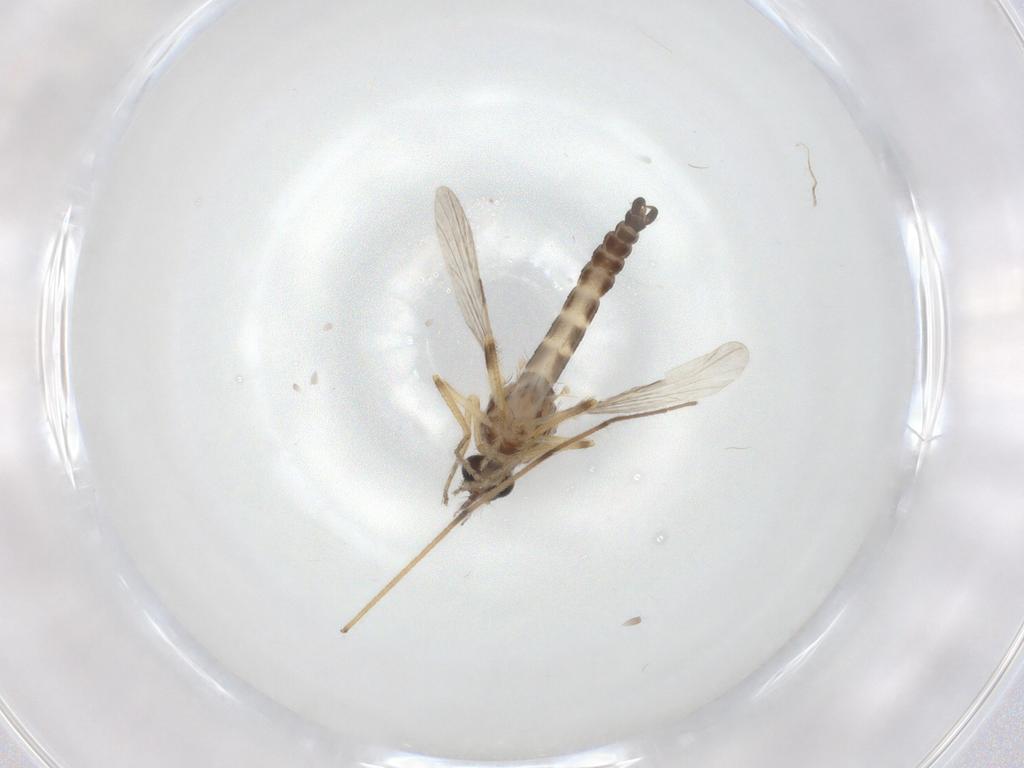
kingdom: Animalia
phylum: Arthropoda
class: Insecta
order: Diptera
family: Ceratopogonidae
